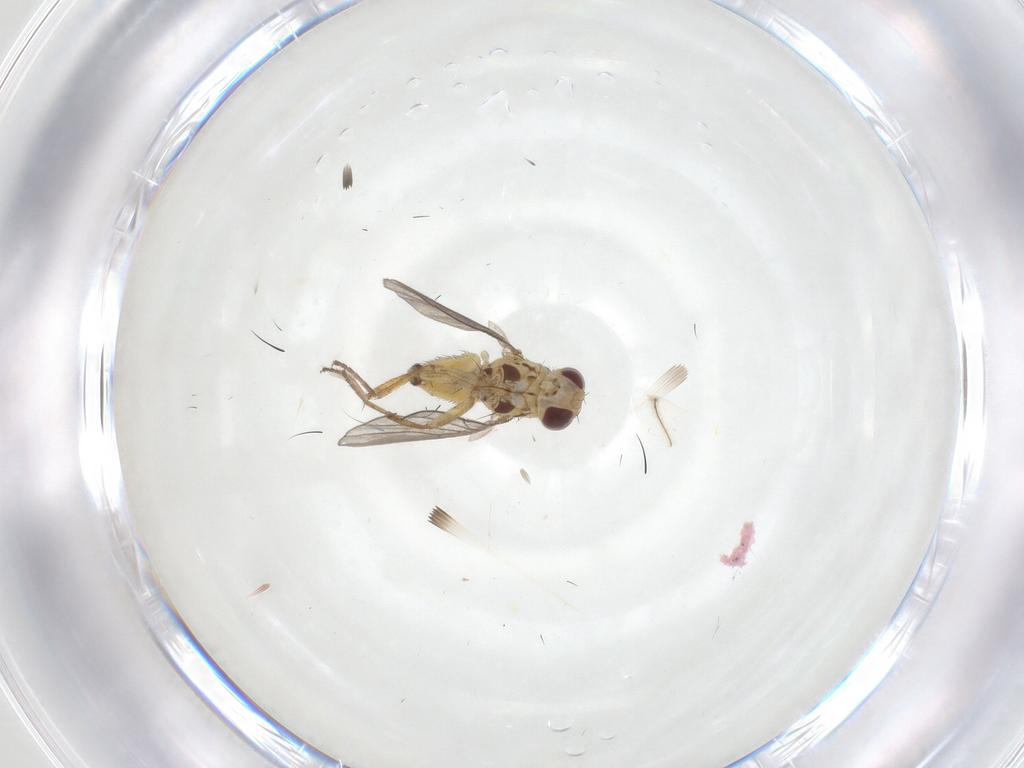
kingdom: Animalia
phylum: Arthropoda
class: Insecta
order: Diptera
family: Agromyzidae
